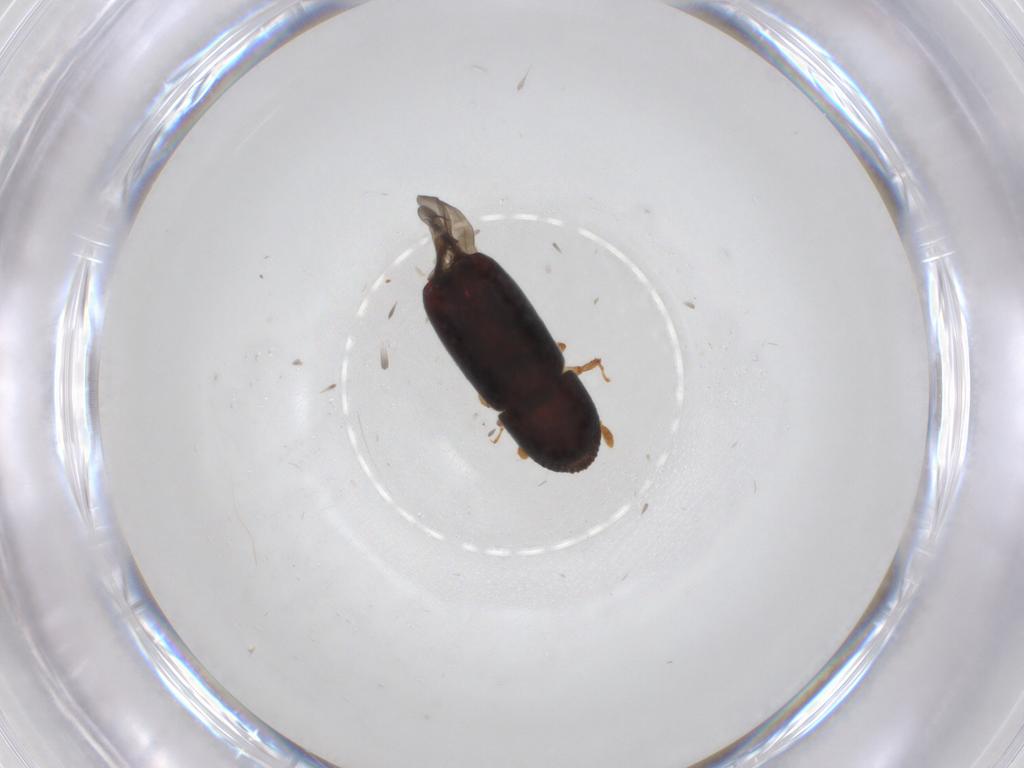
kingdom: Animalia
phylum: Arthropoda
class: Insecta
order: Coleoptera
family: Curculionidae
